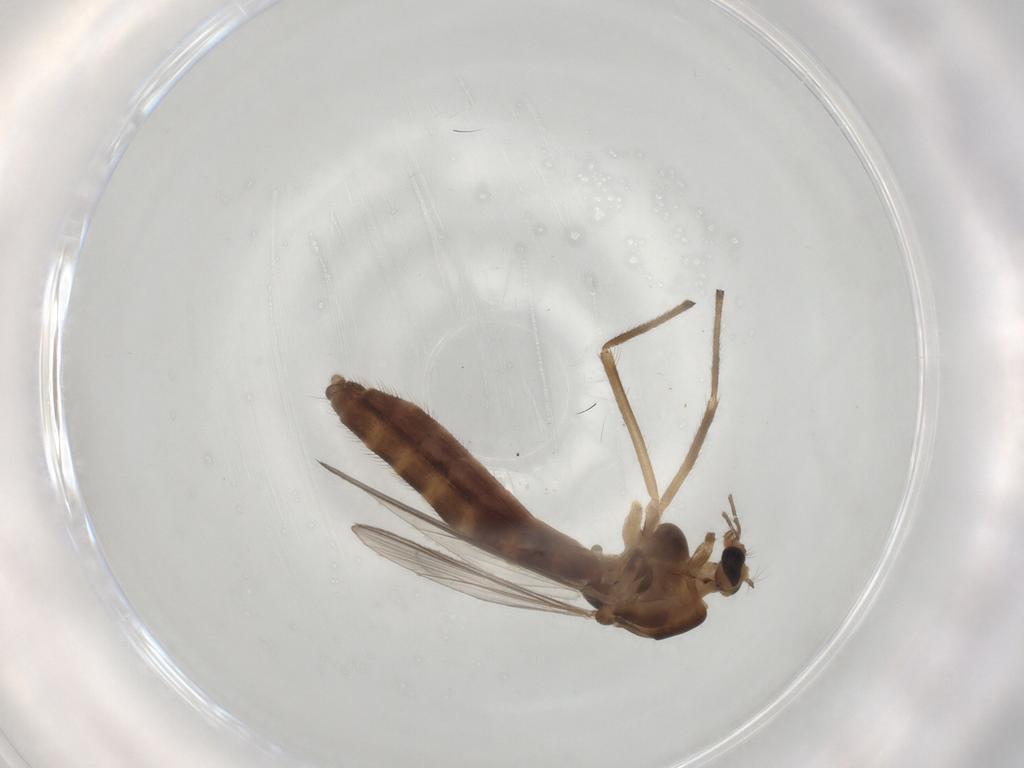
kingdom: Animalia
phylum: Arthropoda
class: Insecta
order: Diptera
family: Chironomidae
